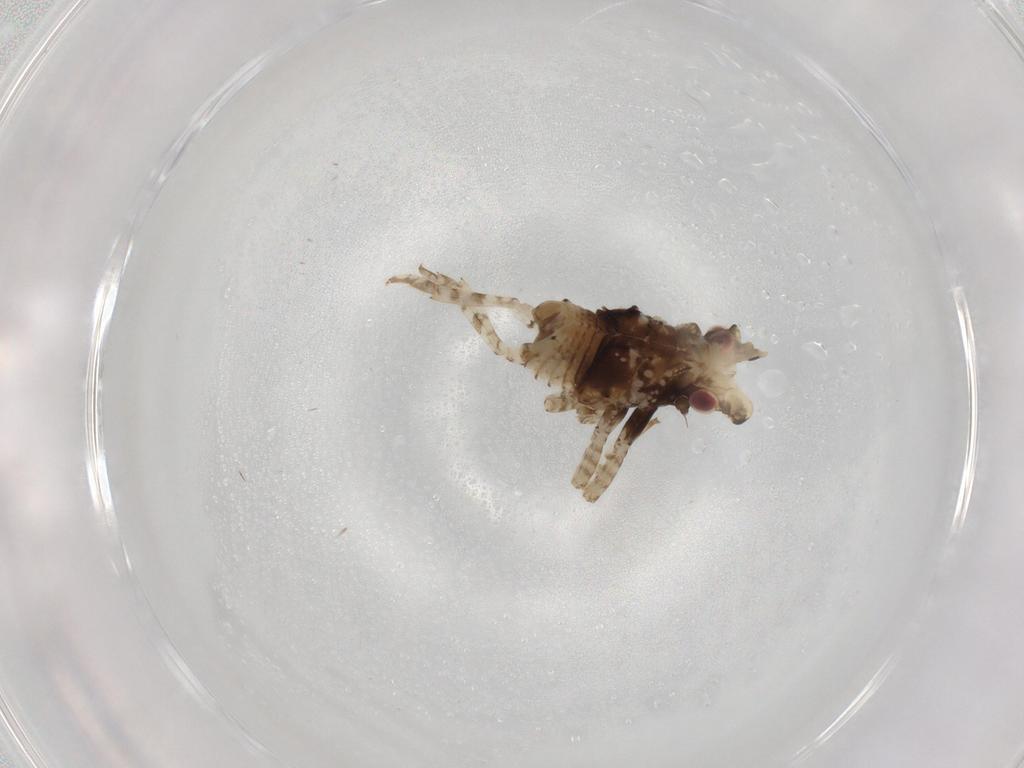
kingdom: Animalia
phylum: Arthropoda
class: Insecta
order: Hemiptera
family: Fulgoridae
